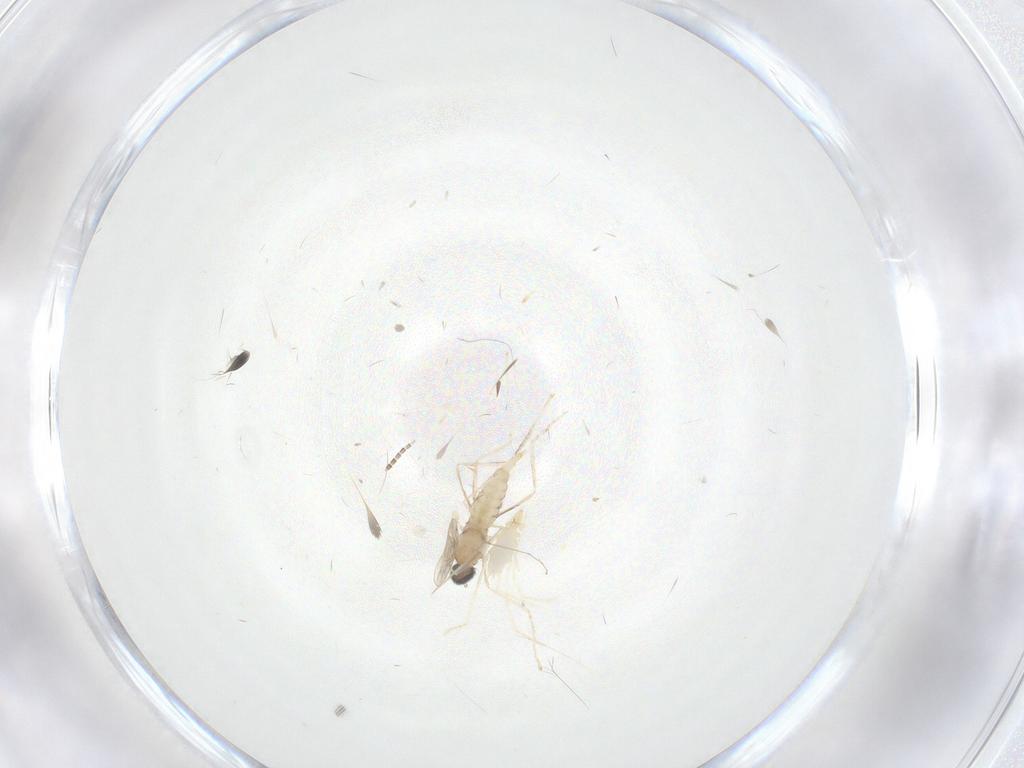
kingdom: Animalia
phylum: Arthropoda
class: Insecta
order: Diptera
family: Cecidomyiidae
